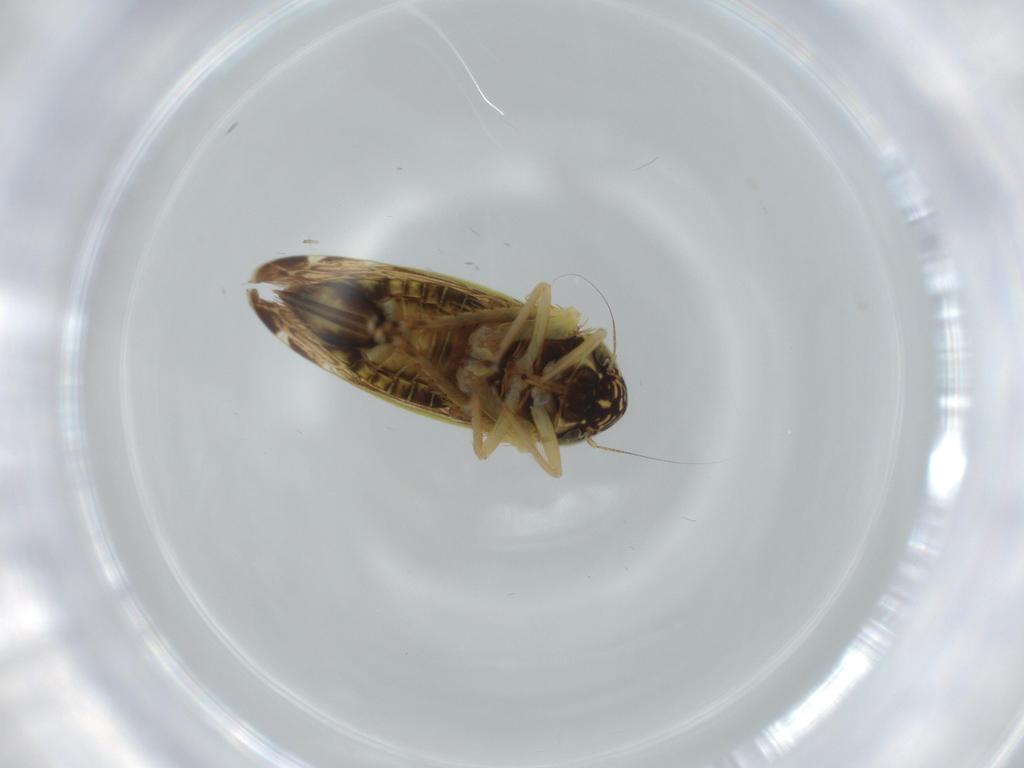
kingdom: Animalia
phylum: Arthropoda
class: Insecta
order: Hemiptera
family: Cicadellidae
